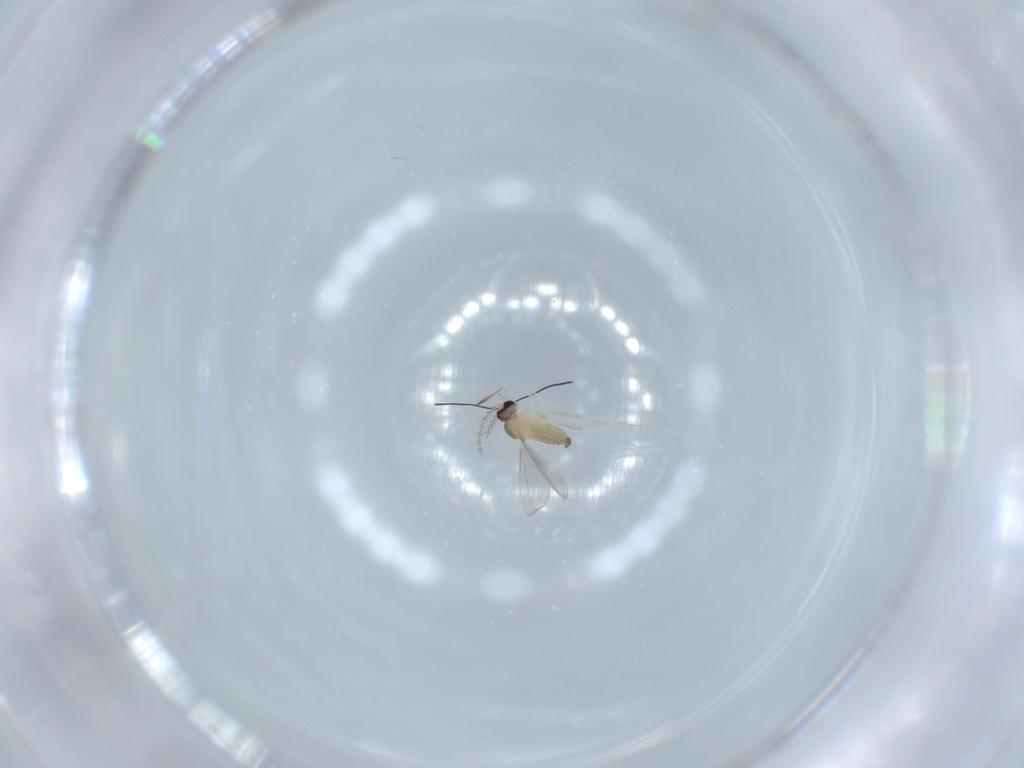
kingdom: Animalia
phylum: Arthropoda
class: Insecta
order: Diptera
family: Cecidomyiidae
